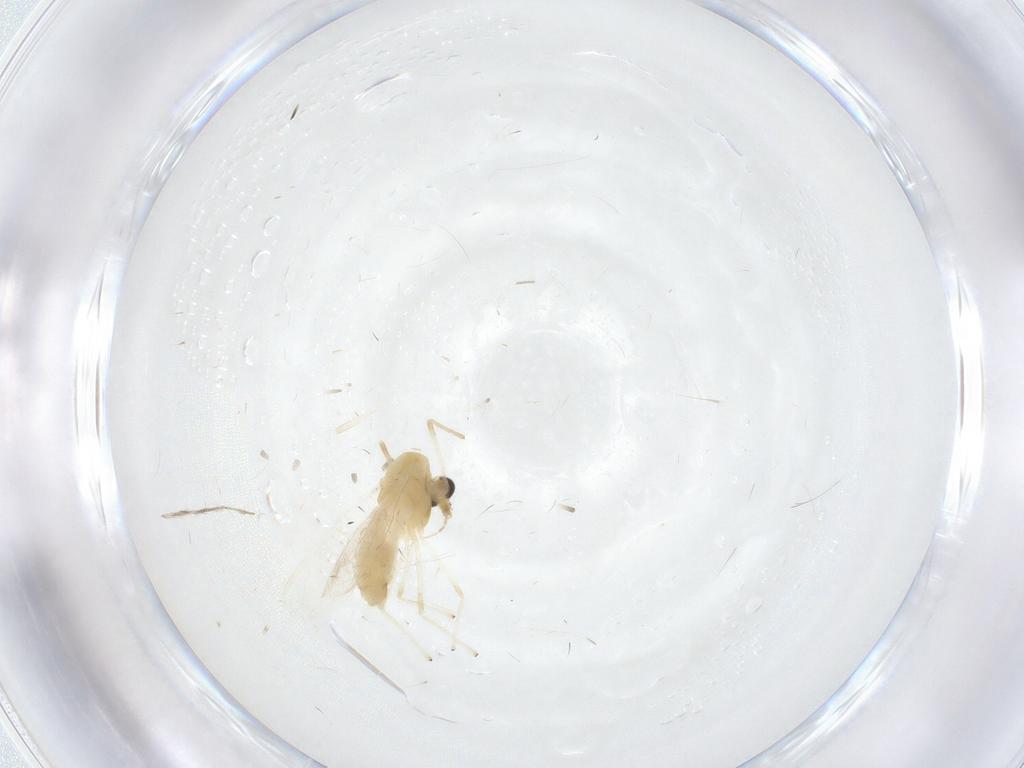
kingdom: Animalia
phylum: Arthropoda
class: Insecta
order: Diptera
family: Chironomidae
